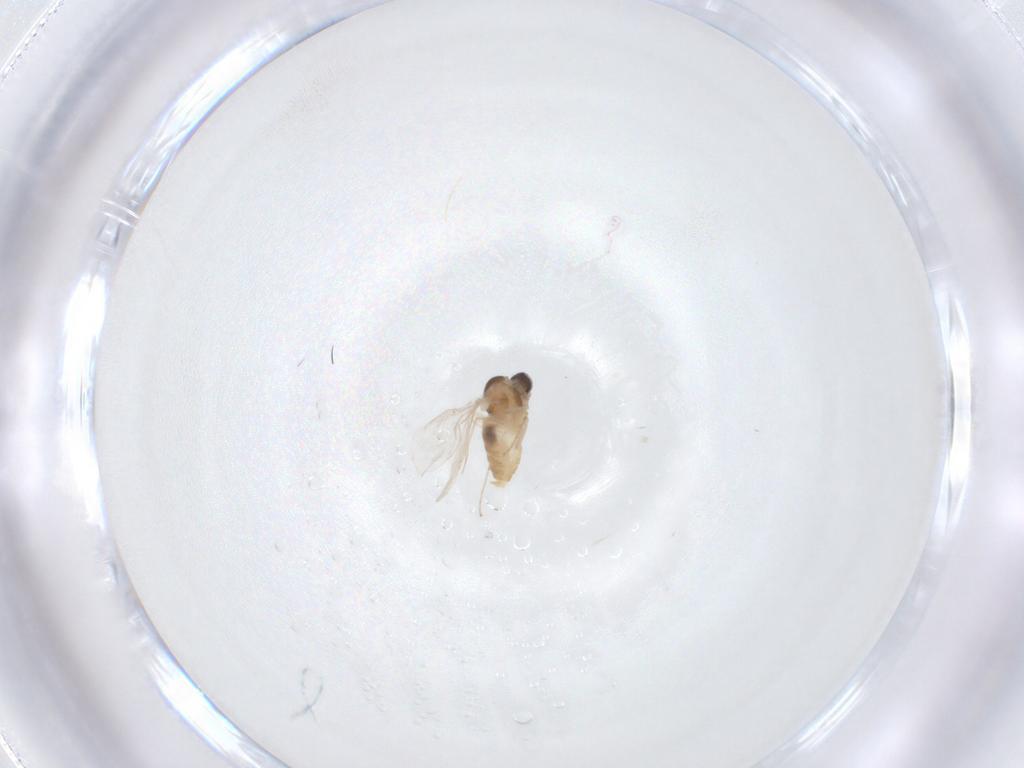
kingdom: Animalia
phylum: Arthropoda
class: Insecta
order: Diptera
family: Cecidomyiidae
